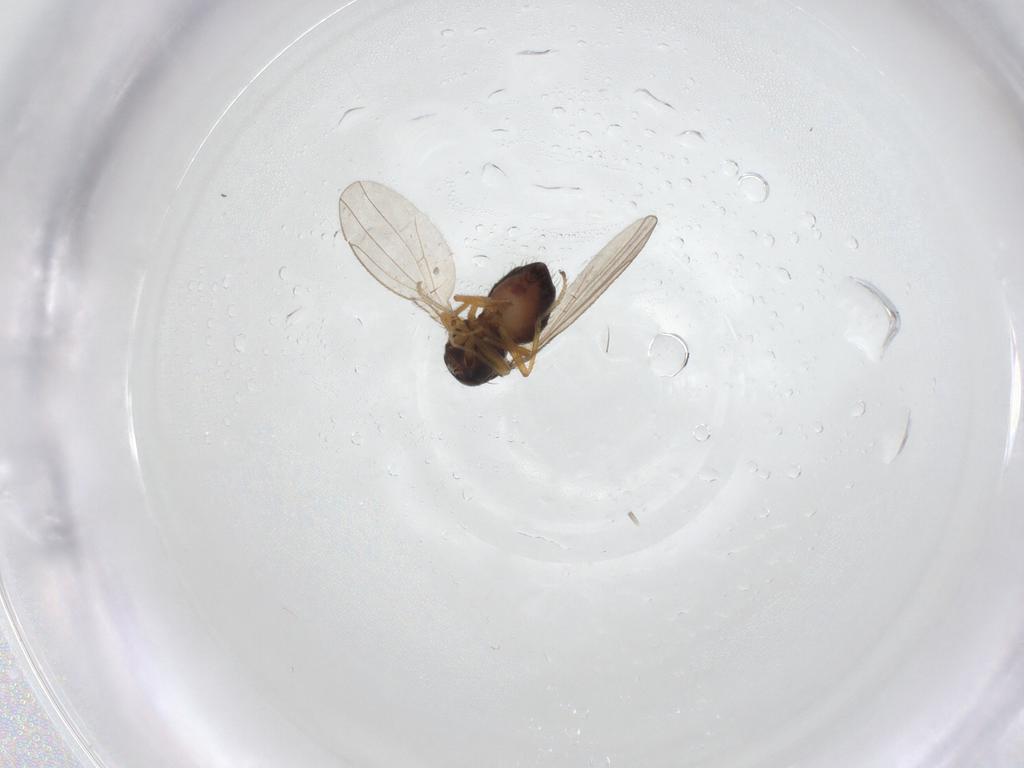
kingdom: Animalia
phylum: Arthropoda
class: Insecta
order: Diptera
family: Ephydridae
